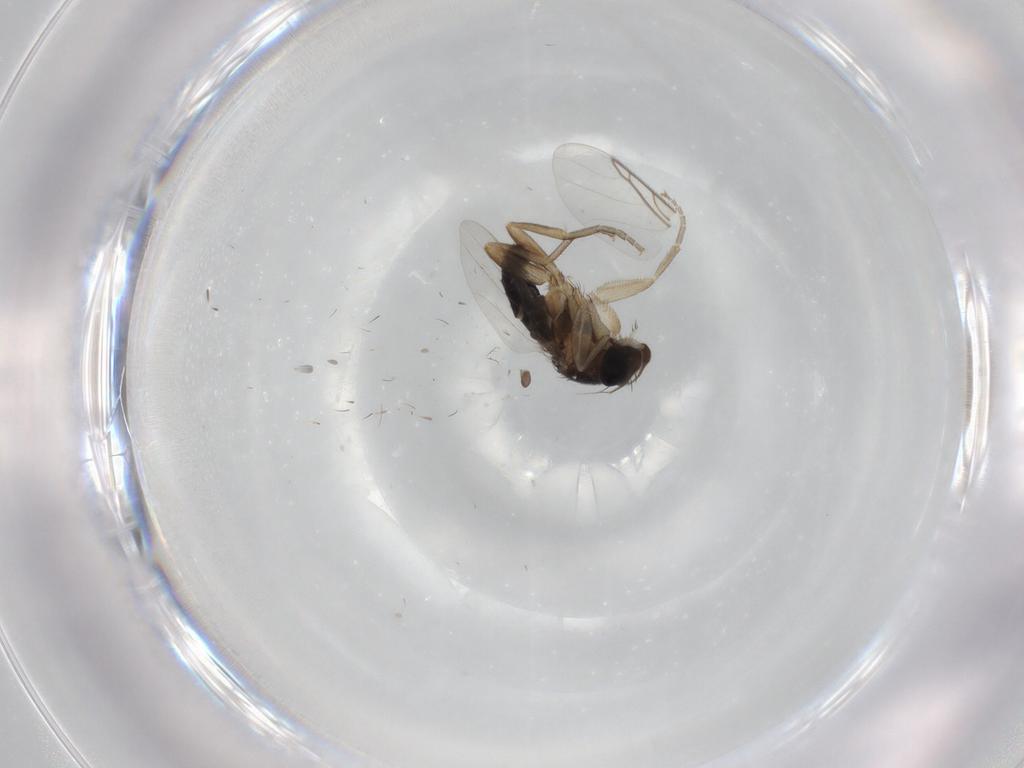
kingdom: Animalia
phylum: Arthropoda
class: Insecta
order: Diptera
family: Phoridae
